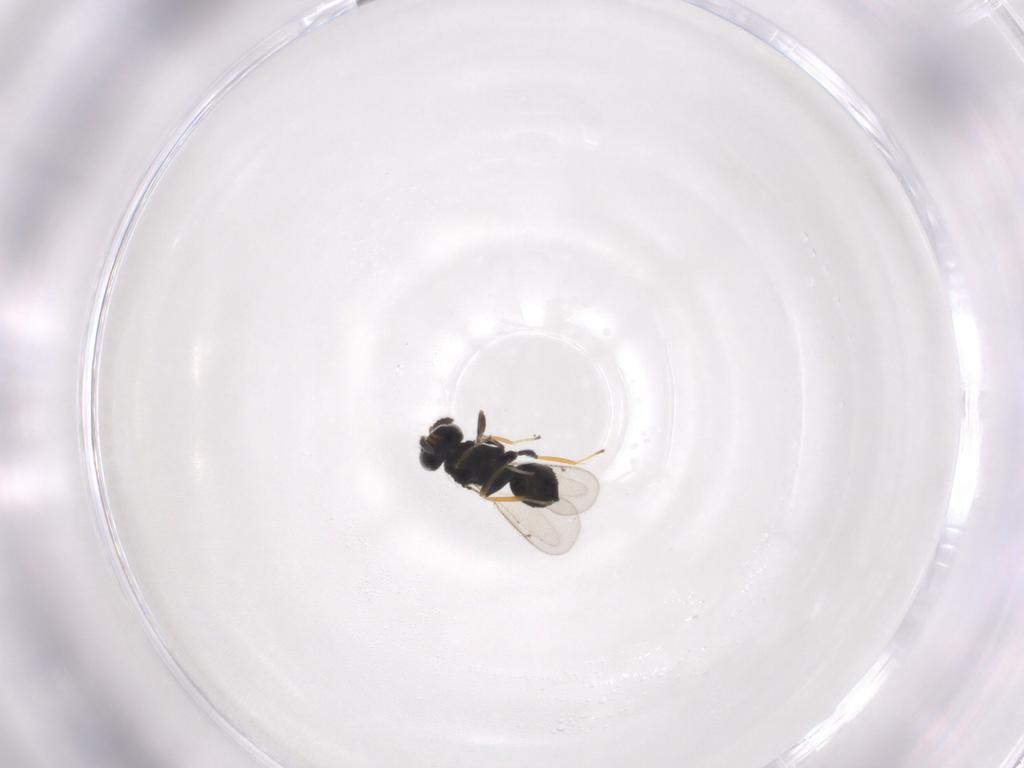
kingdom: Animalia
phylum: Arthropoda
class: Insecta
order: Hymenoptera
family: Eulophidae
